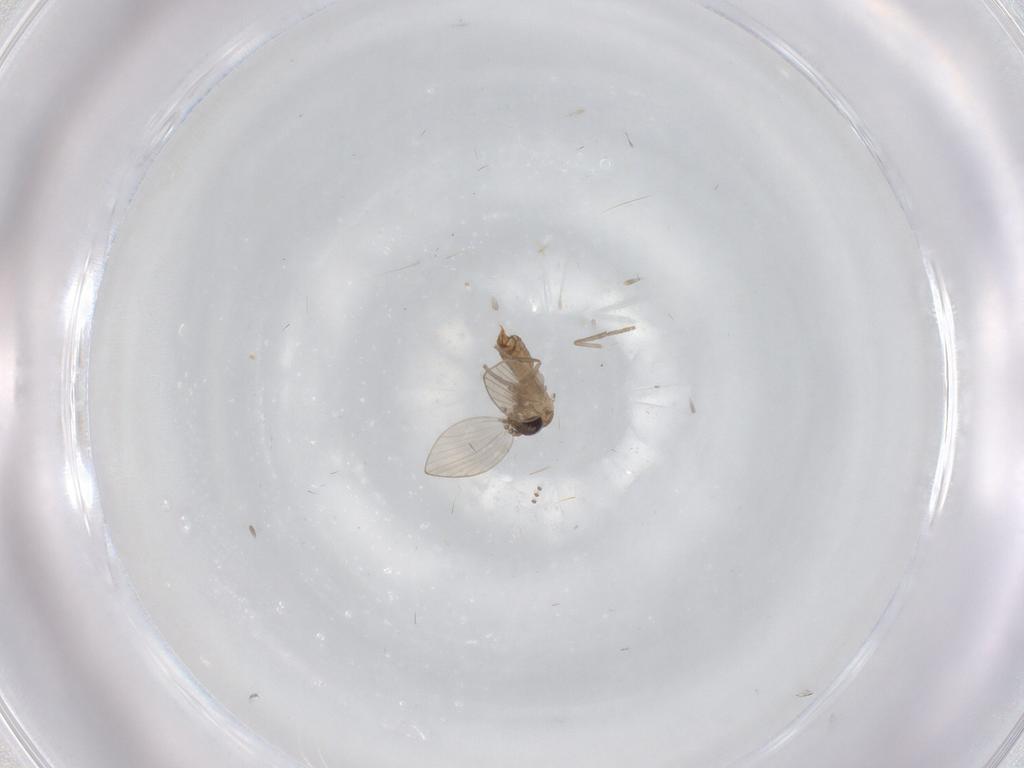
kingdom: Animalia
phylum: Arthropoda
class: Insecta
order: Diptera
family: Psychodidae
